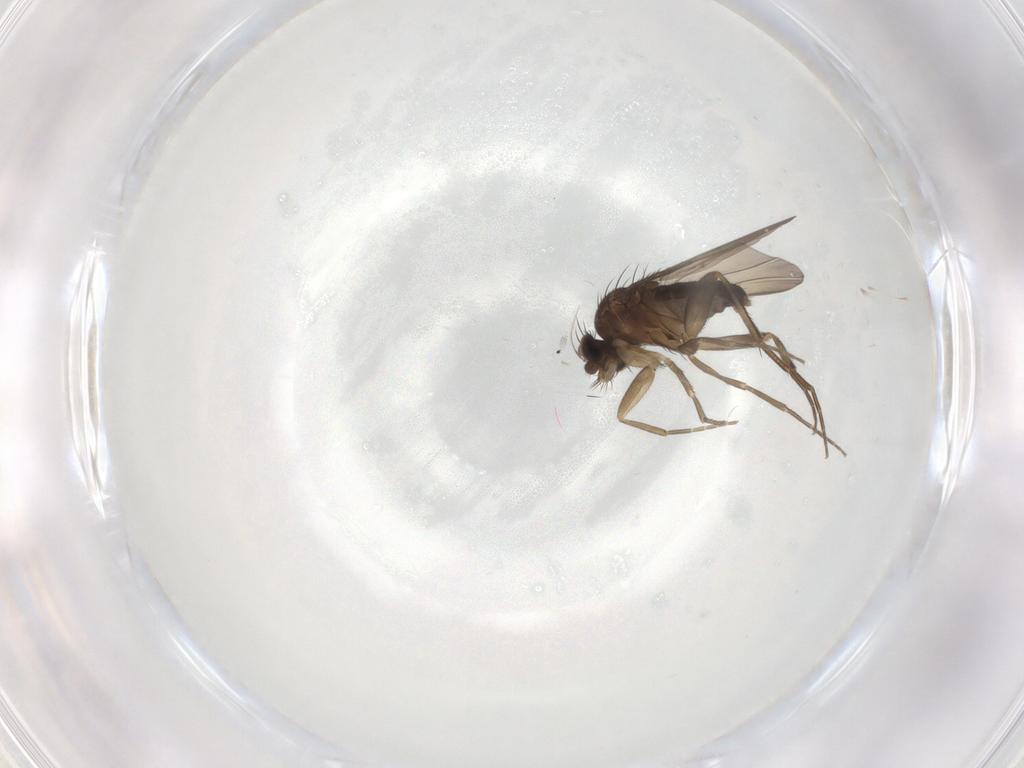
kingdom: Animalia
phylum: Arthropoda
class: Insecta
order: Diptera
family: Phoridae
